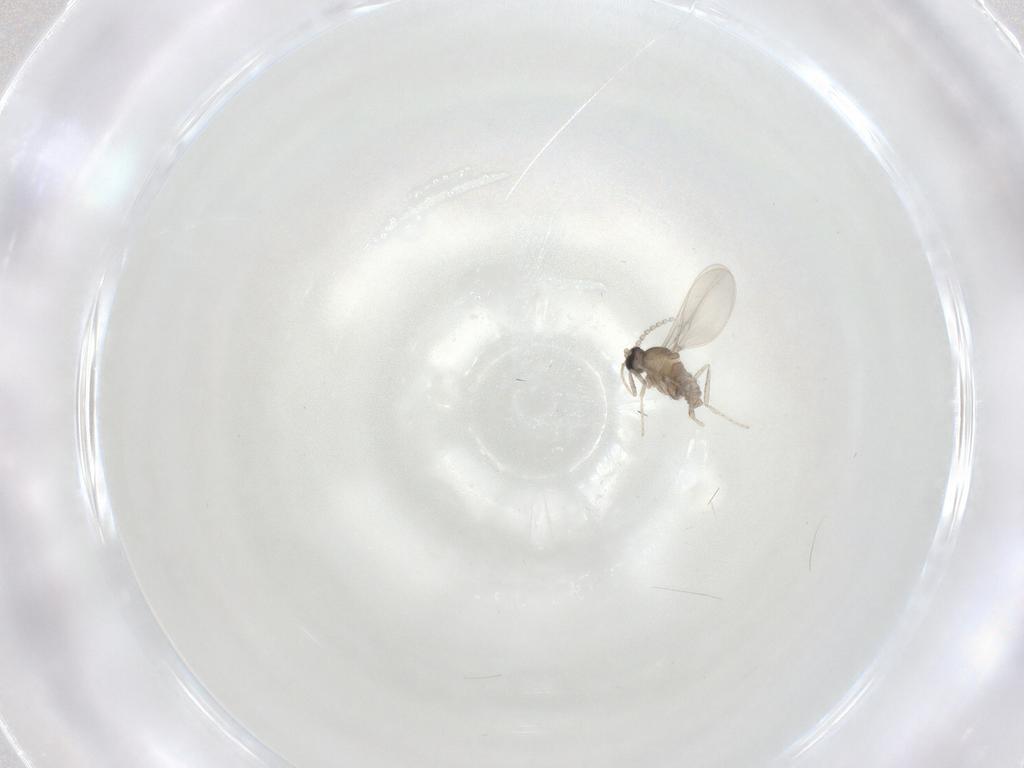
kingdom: Animalia
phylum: Arthropoda
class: Insecta
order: Diptera
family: Cecidomyiidae
